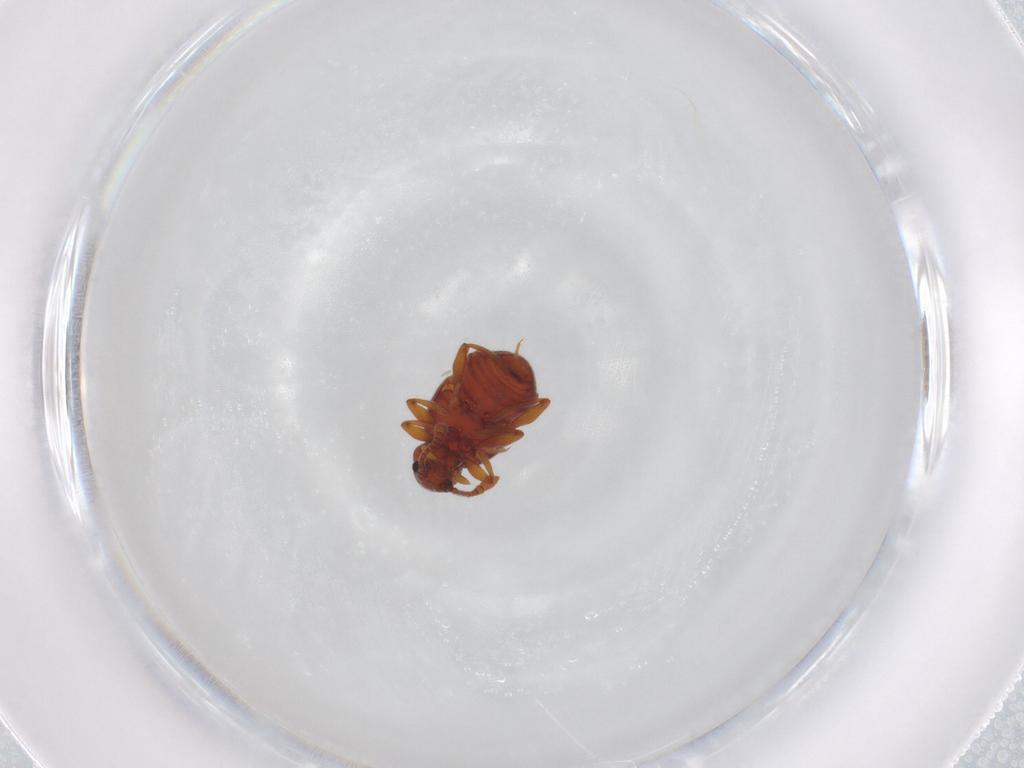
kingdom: Animalia
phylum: Arthropoda
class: Insecta
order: Coleoptera
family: Staphylinidae
